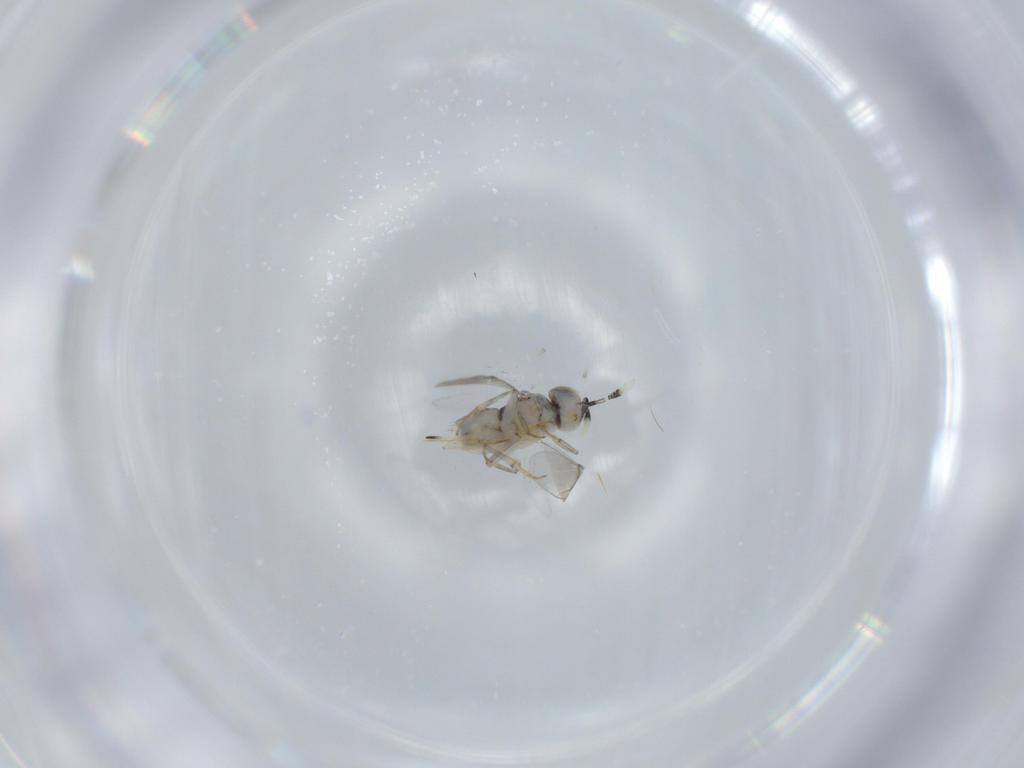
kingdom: Animalia
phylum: Arthropoda
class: Insecta
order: Hymenoptera
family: Encyrtidae
